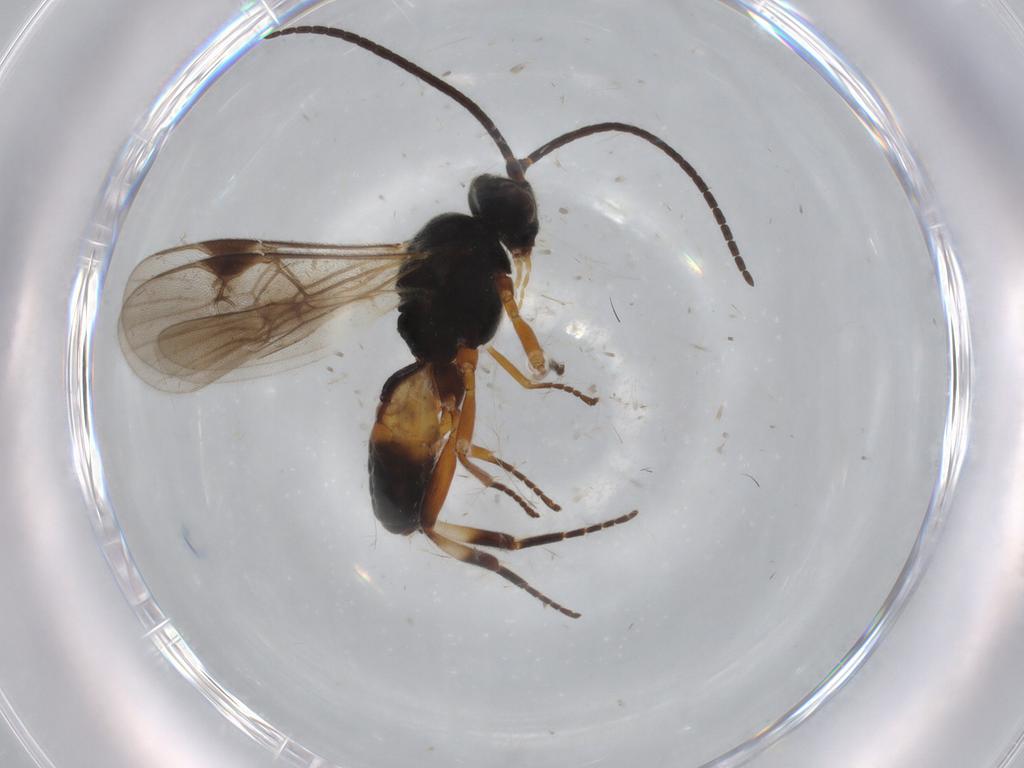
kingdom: Animalia
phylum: Arthropoda
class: Insecta
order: Hymenoptera
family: Braconidae
